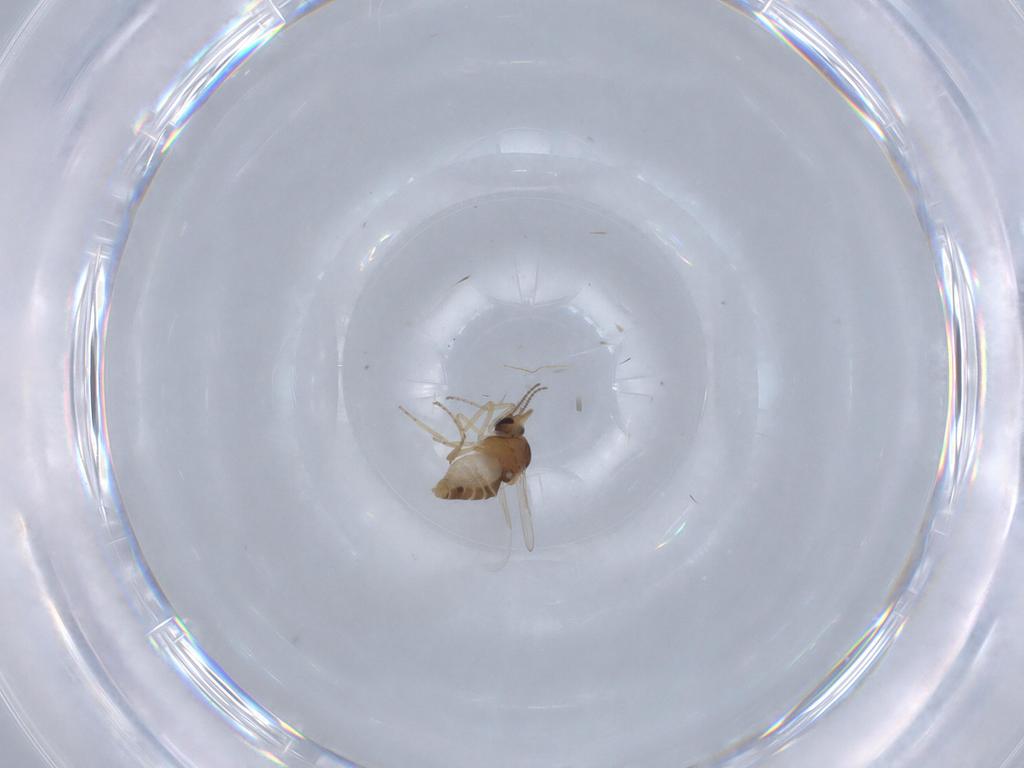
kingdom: Animalia
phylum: Arthropoda
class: Insecta
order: Diptera
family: Ceratopogonidae
